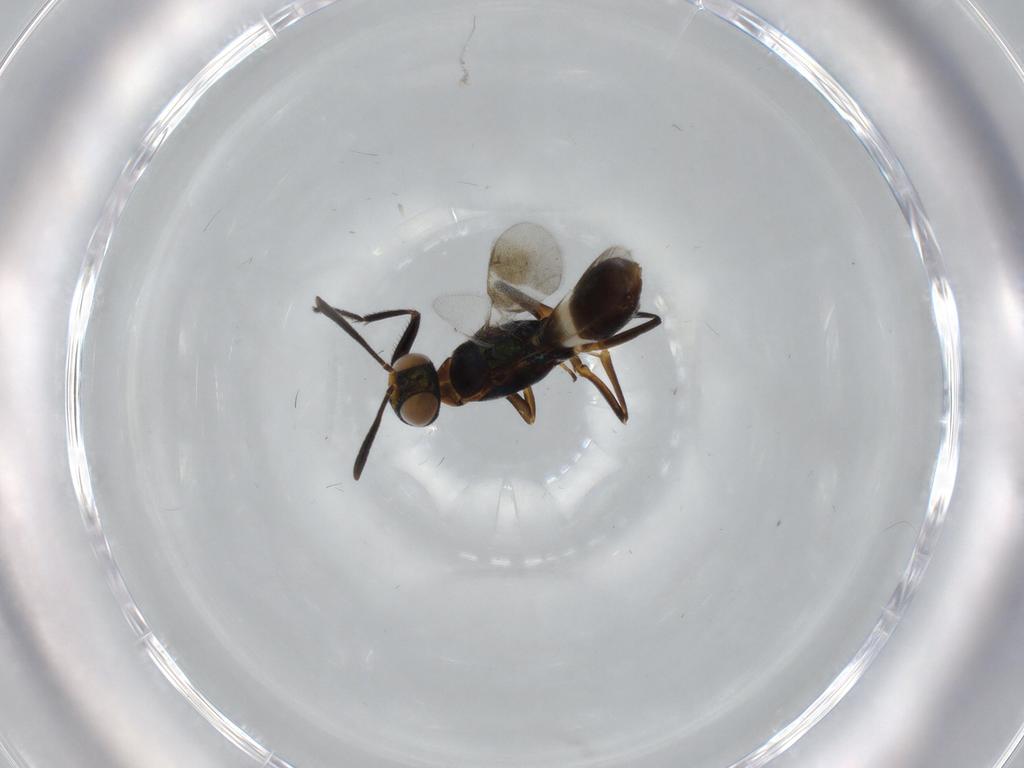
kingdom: Animalia
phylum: Arthropoda
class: Insecta
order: Hymenoptera
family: Eupelmidae
